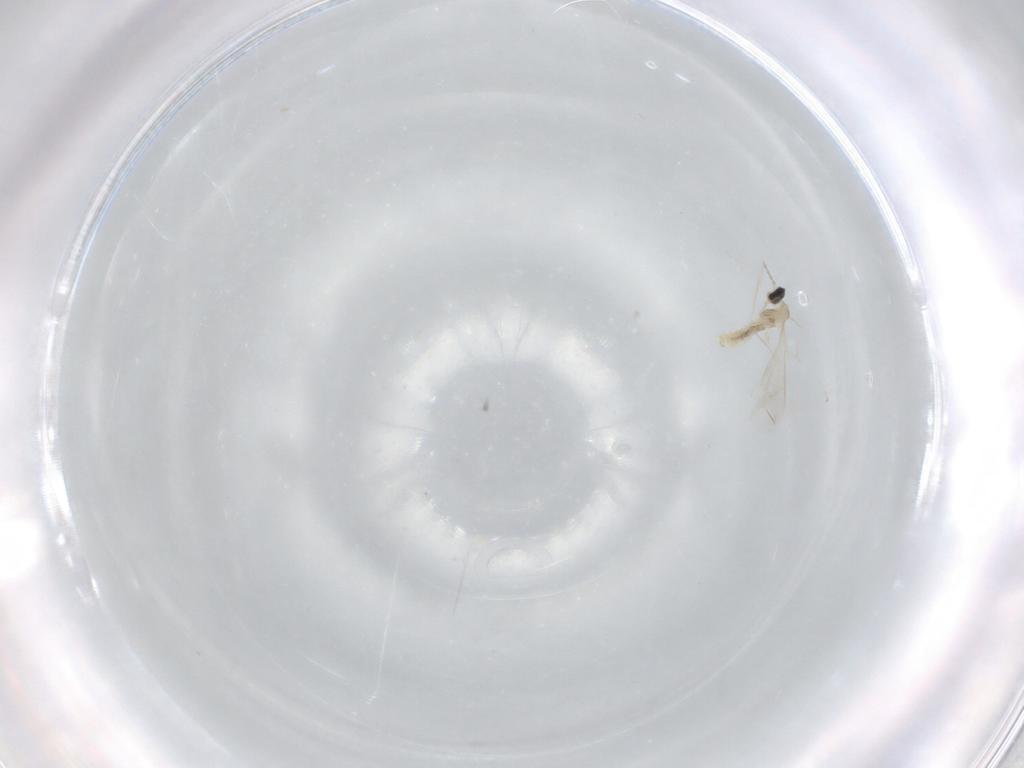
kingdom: Animalia
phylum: Arthropoda
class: Insecta
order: Diptera
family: Cecidomyiidae
